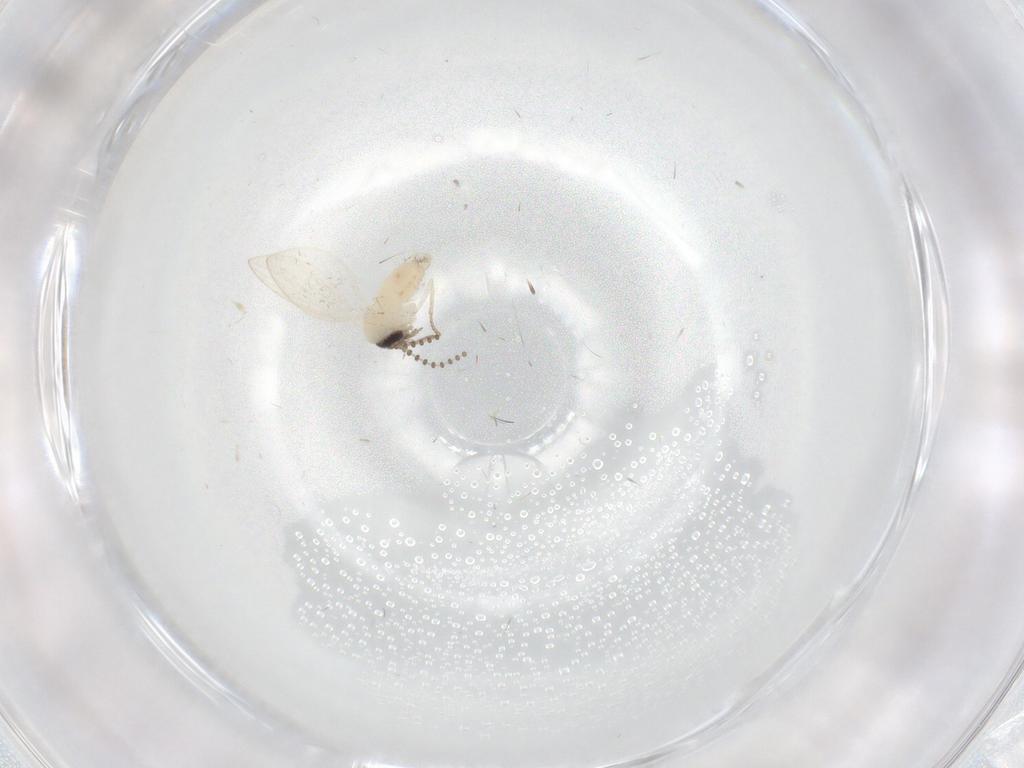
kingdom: Animalia
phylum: Arthropoda
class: Insecta
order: Diptera
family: Psychodidae
